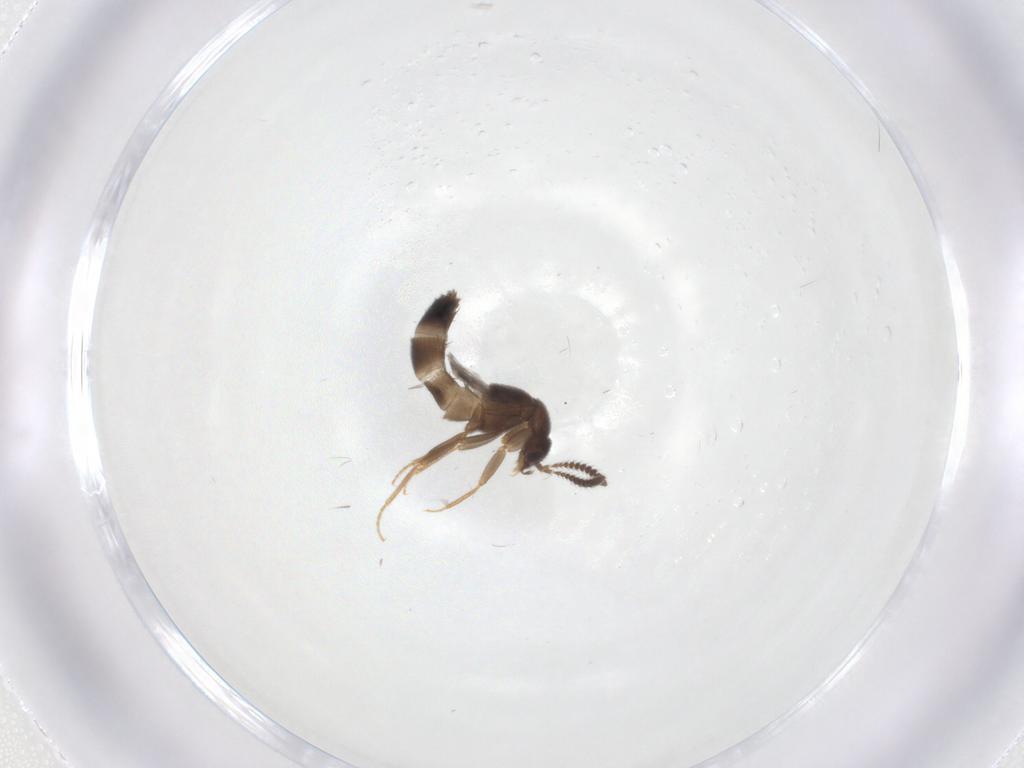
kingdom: Animalia
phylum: Arthropoda
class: Insecta
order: Coleoptera
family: Staphylinidae
